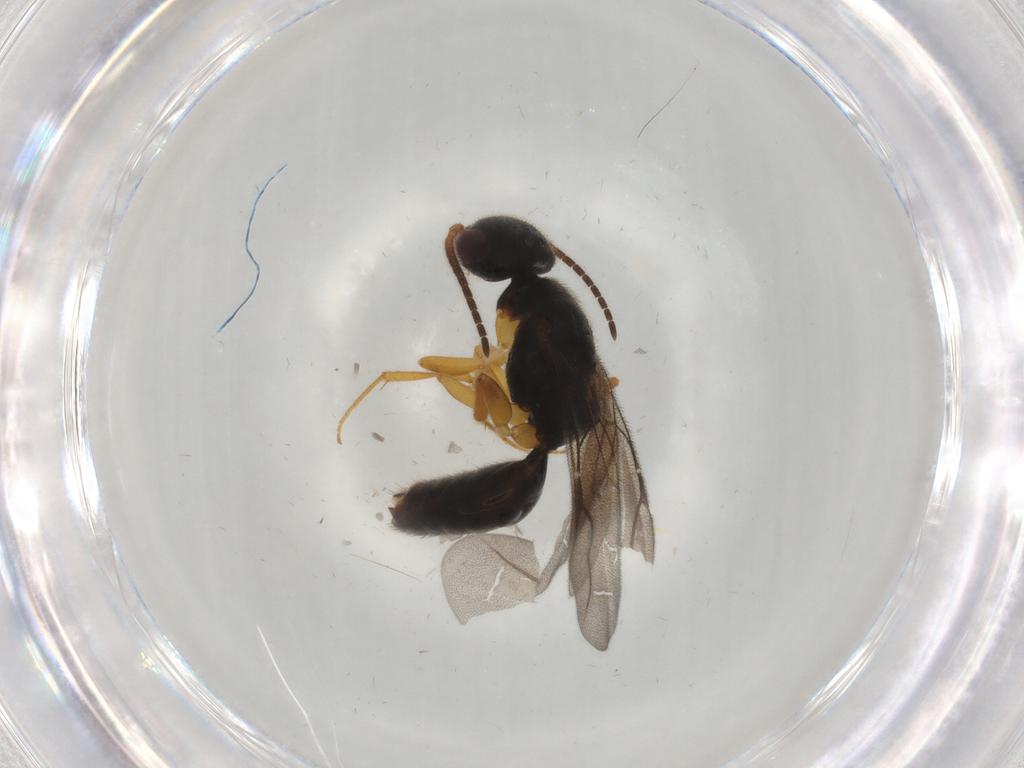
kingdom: Animalia
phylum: Arthropoda
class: Insecta
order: Hymenoptera
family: Bethylidae
